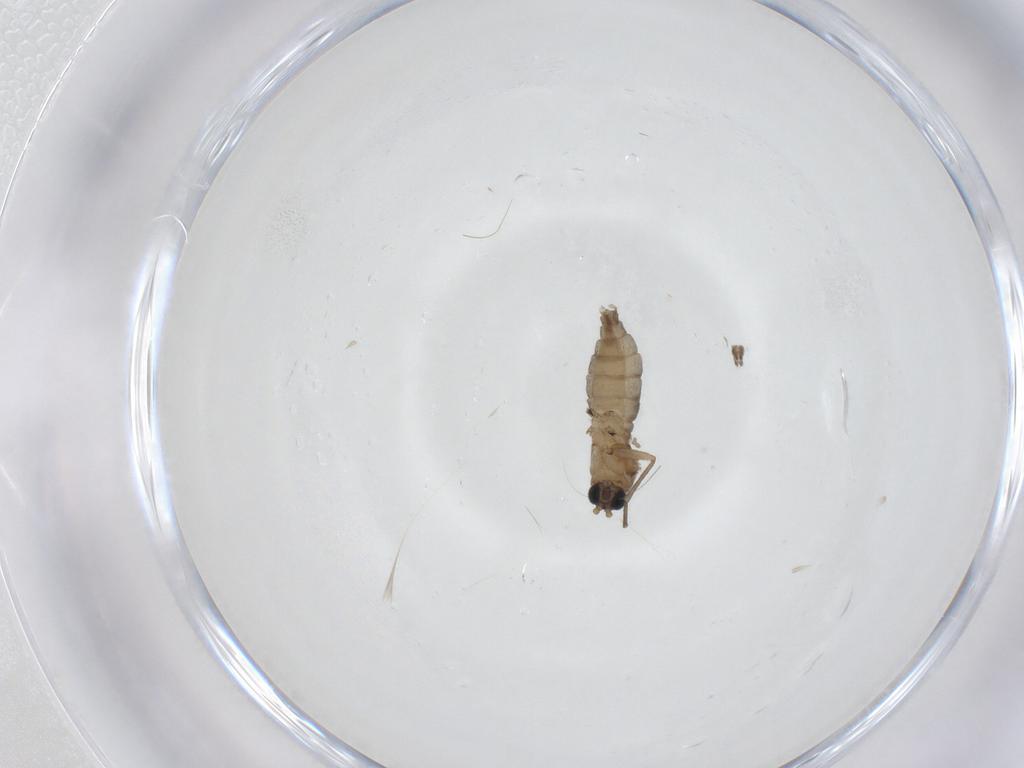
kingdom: Animalia
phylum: Arthropoda
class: Insecta
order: Diptera
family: Sciaridae
